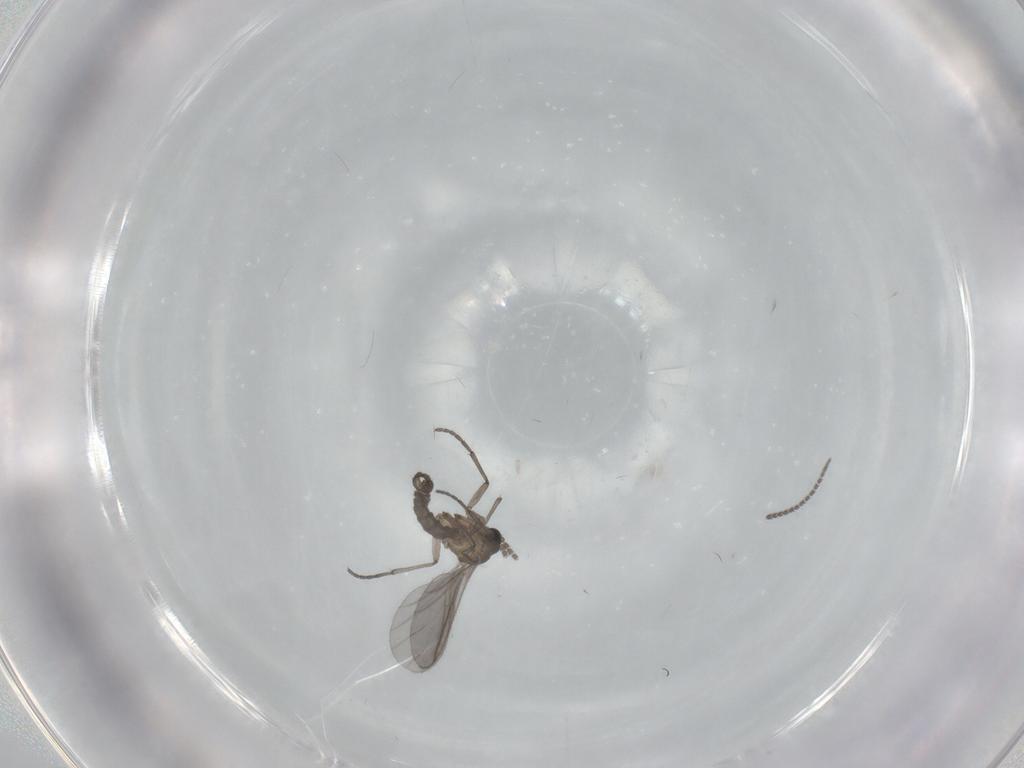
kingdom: Animalia
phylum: Arthropoda
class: Insecta
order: Diptera
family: Sciaridae
